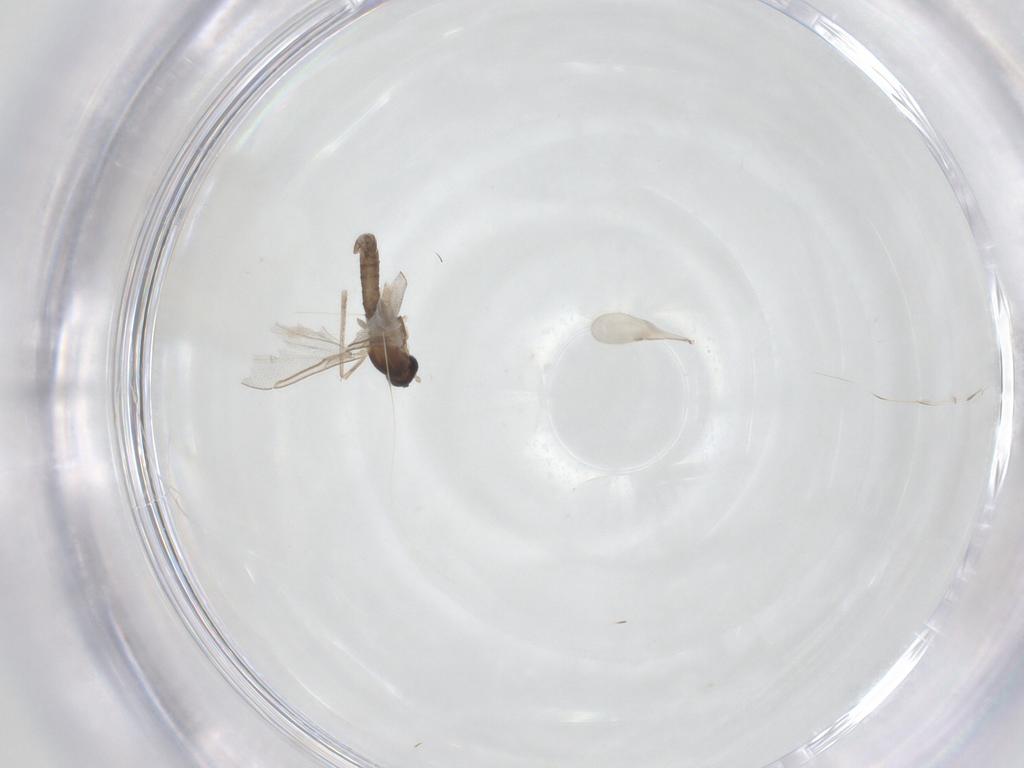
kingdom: Animalia
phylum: Arthropoda
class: Insecta
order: Diptera
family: Cecidomyiidae
